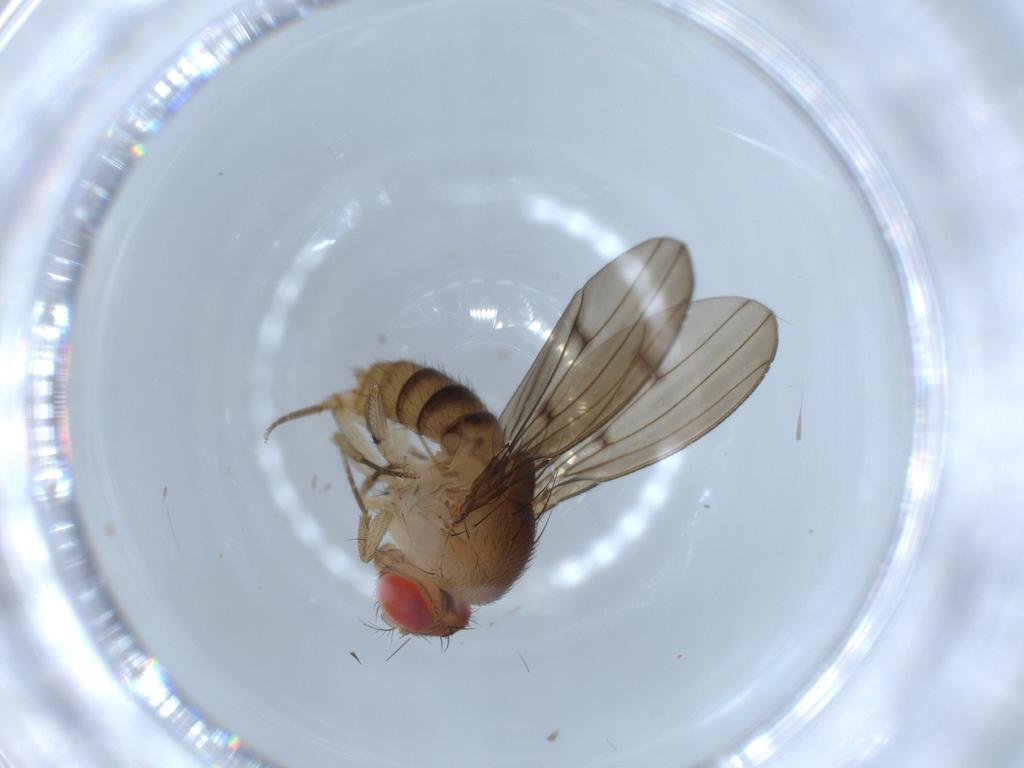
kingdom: Animalia
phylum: Arthropoda
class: Insecta
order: Diptera
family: Drosophilidae
